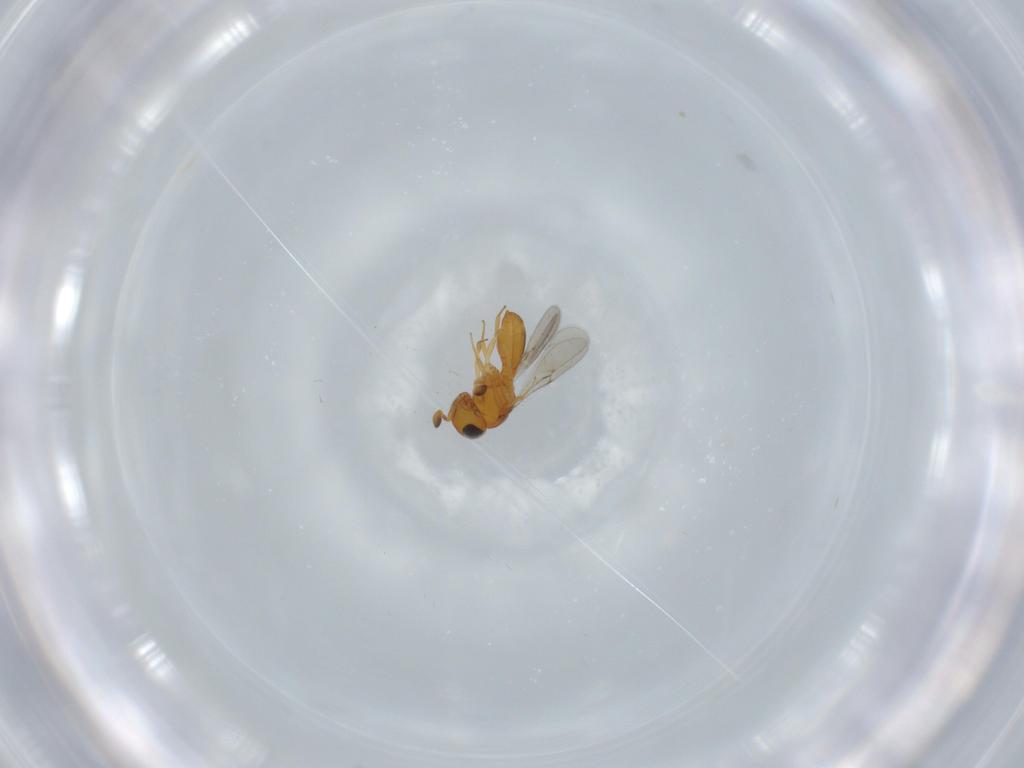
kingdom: Animalia
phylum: Arthropoda
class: Insecta
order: Hymenoptera
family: Scelionidae
